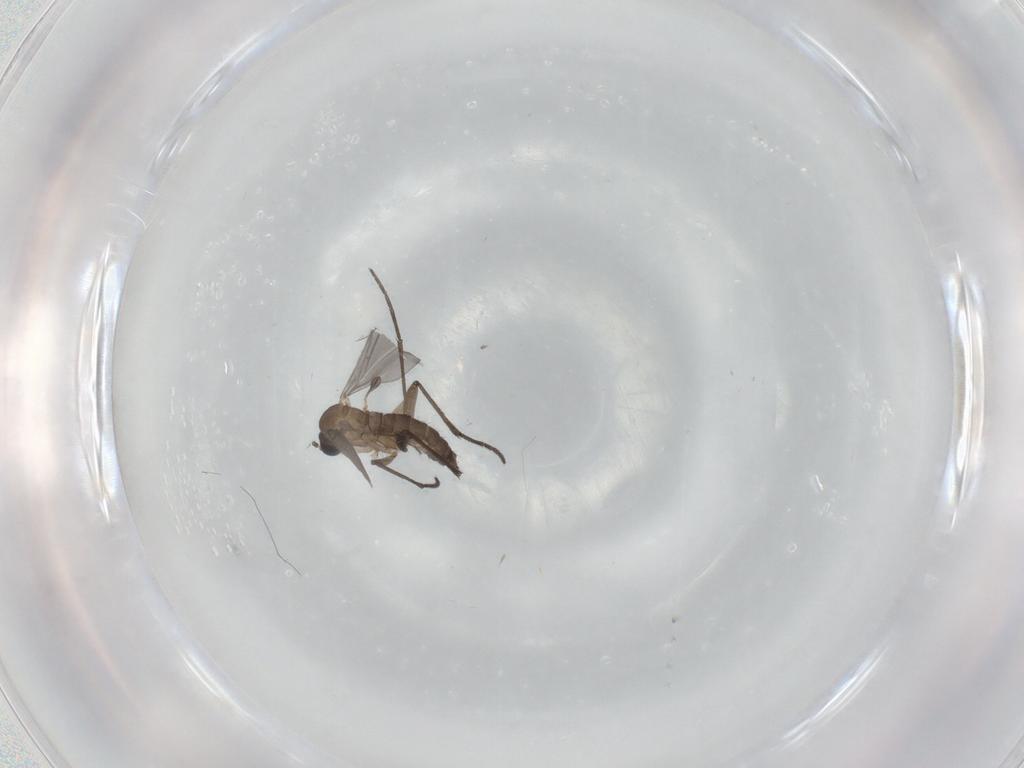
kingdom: Animalia
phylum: Arthropoda
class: Insecta
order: Diptera
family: Sciaridae
